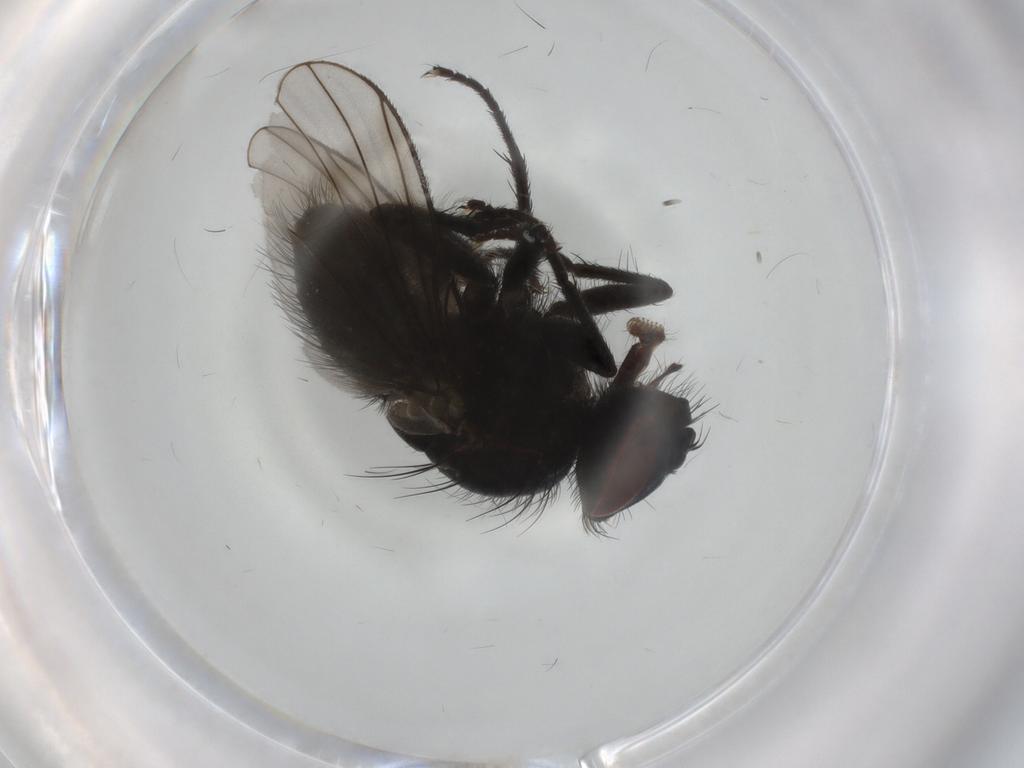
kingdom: Animalia
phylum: Arthropoda
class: Insecta
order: Diptera
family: Muscidae
